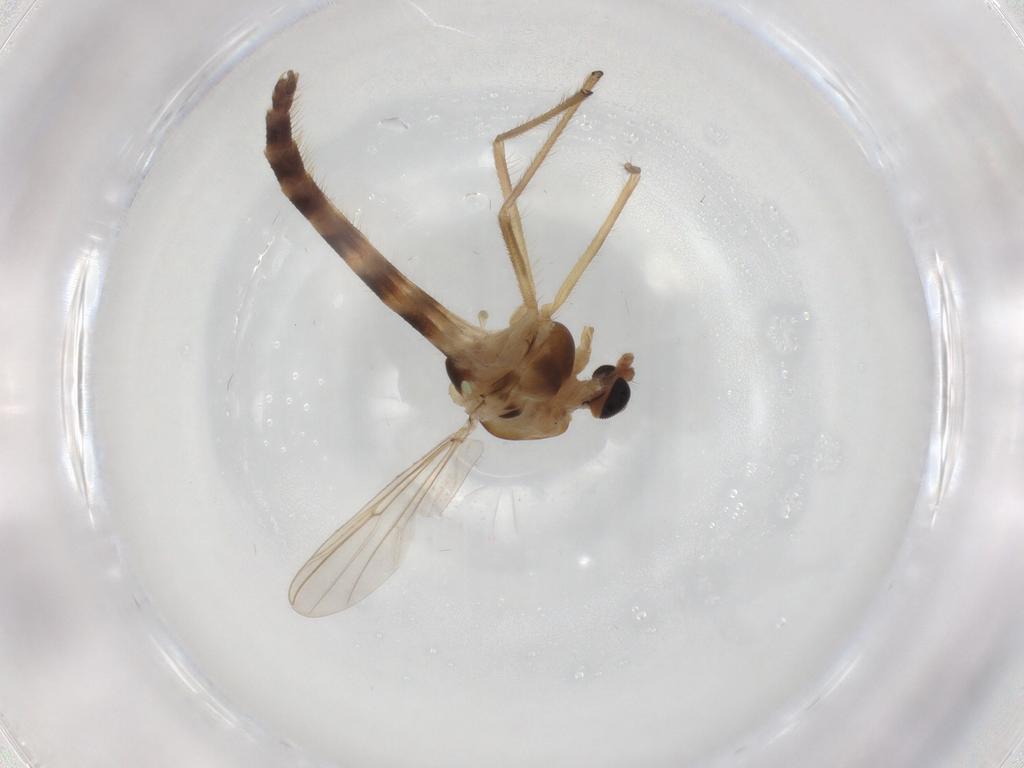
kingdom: Animalia
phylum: Arthropoda
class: Insecta
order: Diptera
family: Chironomidae
